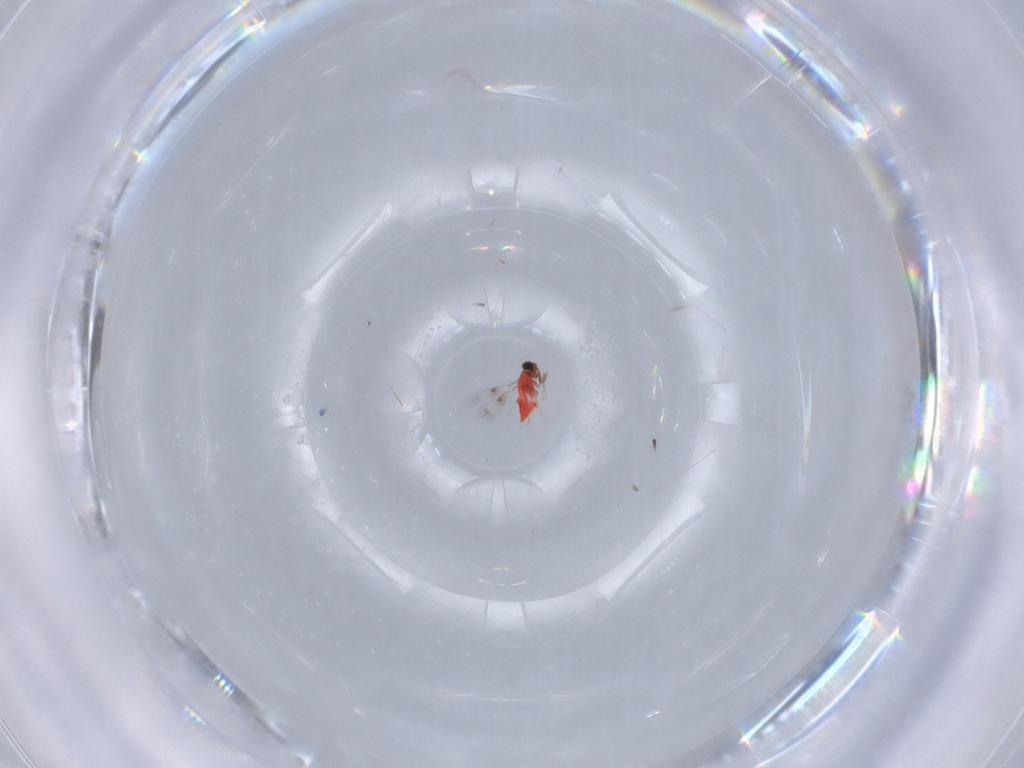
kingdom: Animalia
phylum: Arthropoda
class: Insecta
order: Hymenoptera
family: Trichogrammatidae
